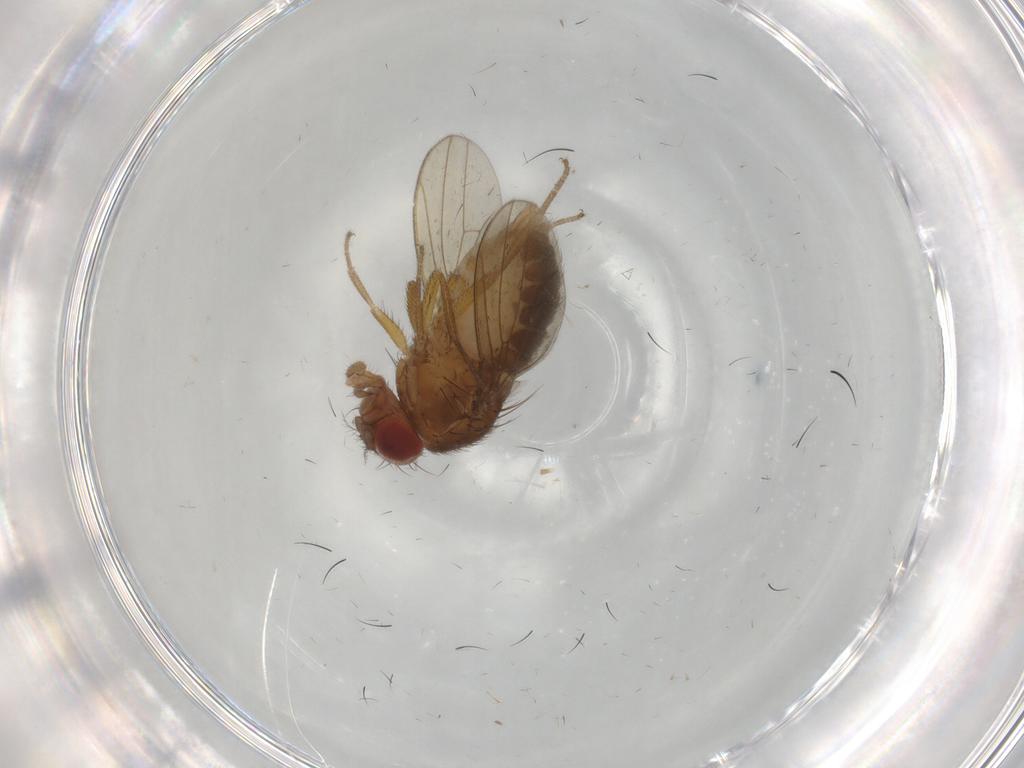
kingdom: Animalia
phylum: Arthropoda
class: Insecta
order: Diptera
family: Drosophilidae
